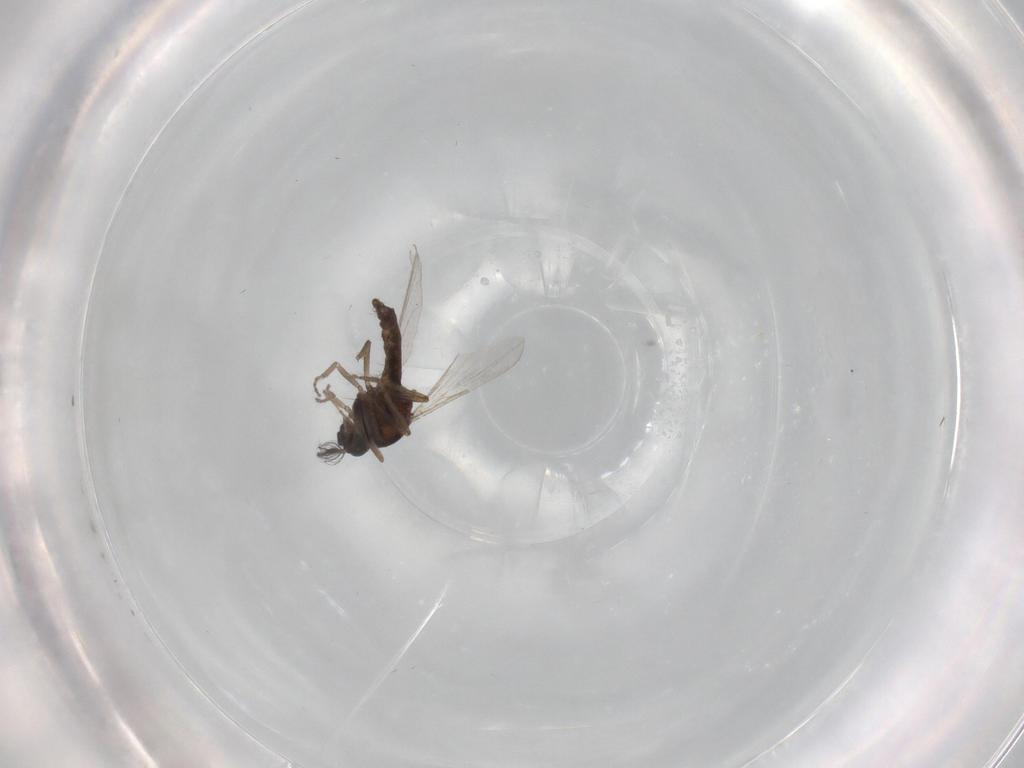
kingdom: Animalia
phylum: Arthropoda
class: Insecta
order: Diptera
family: Ceratopogonidae
